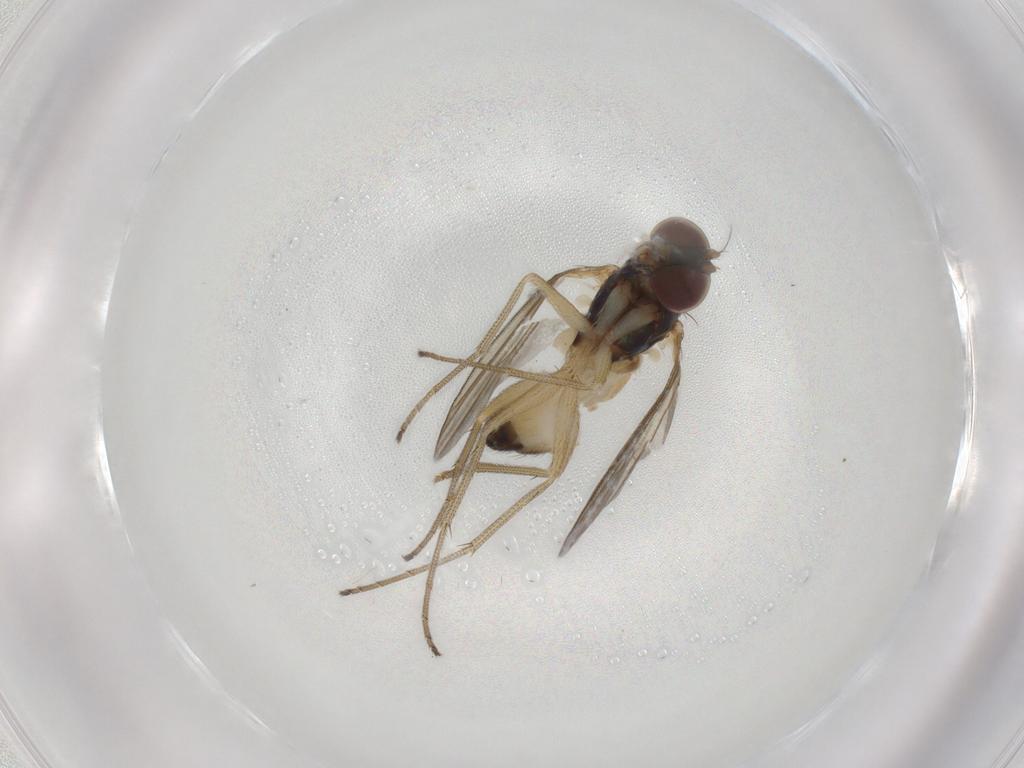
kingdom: Animalia
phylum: Arthropoda
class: Insecta
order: Diptera
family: Dolichopodidae
